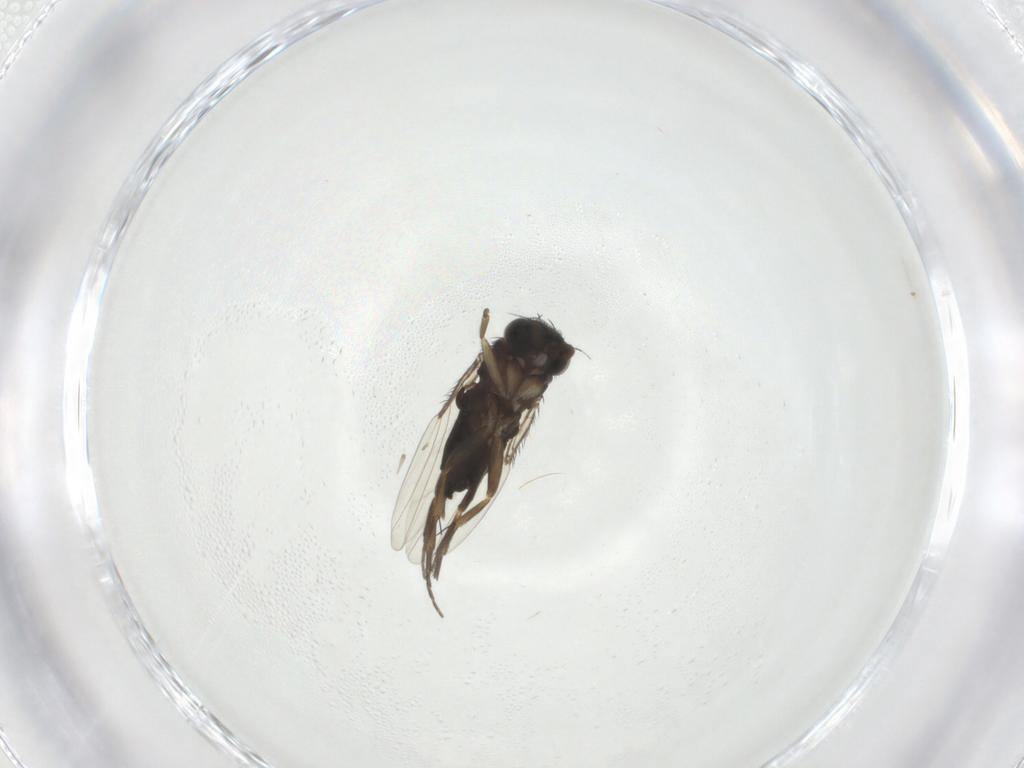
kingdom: Animalia
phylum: Arthropoda
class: Insecta
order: Diptera
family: Phoridae
